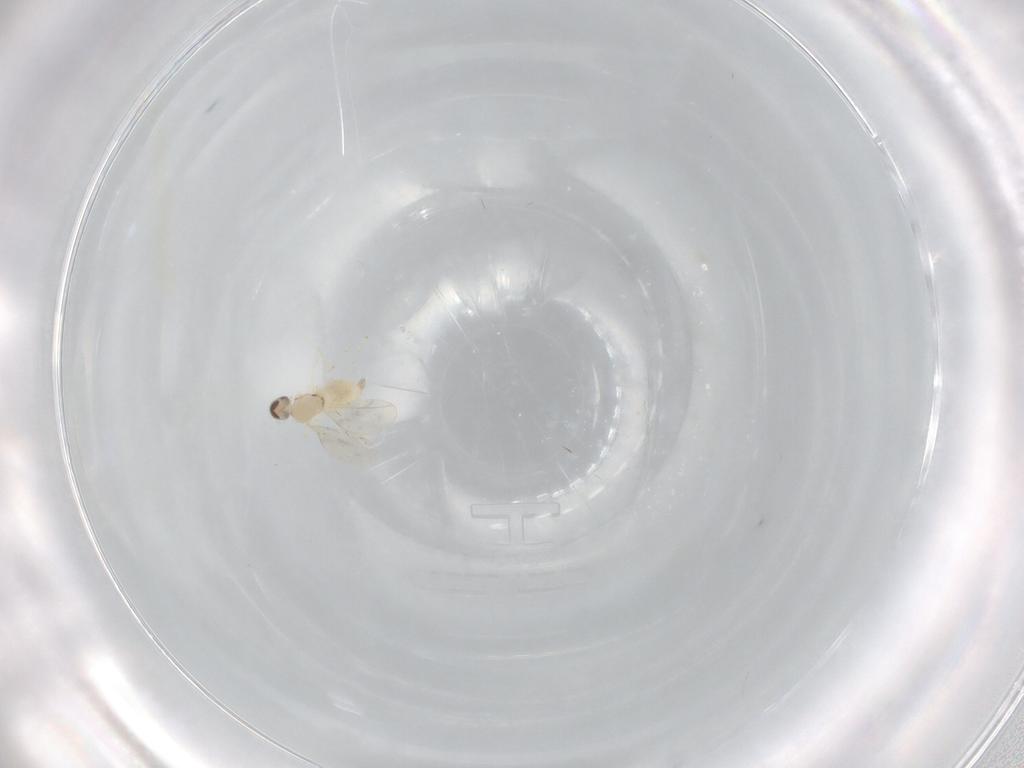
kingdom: Animalia
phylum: Arthropoda
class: Insecta
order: Diptera
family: Cecidomyiidae
